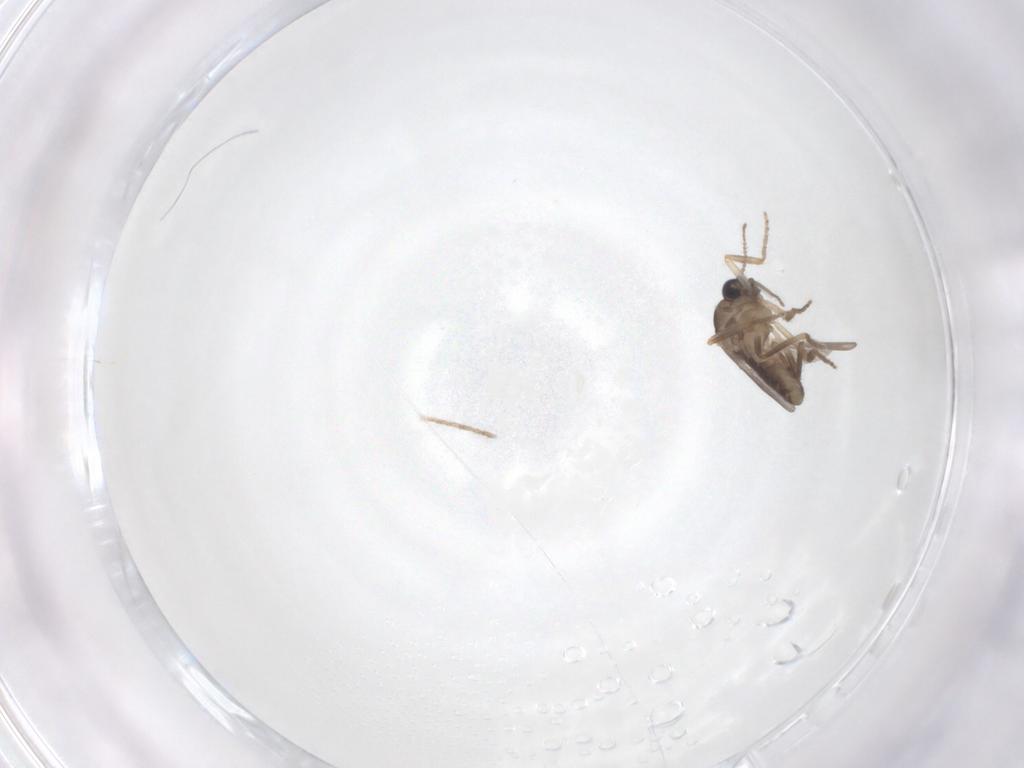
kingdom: Animalia
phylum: Arthropoda
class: Insecta
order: Diptera
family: Ceratopogonidae
